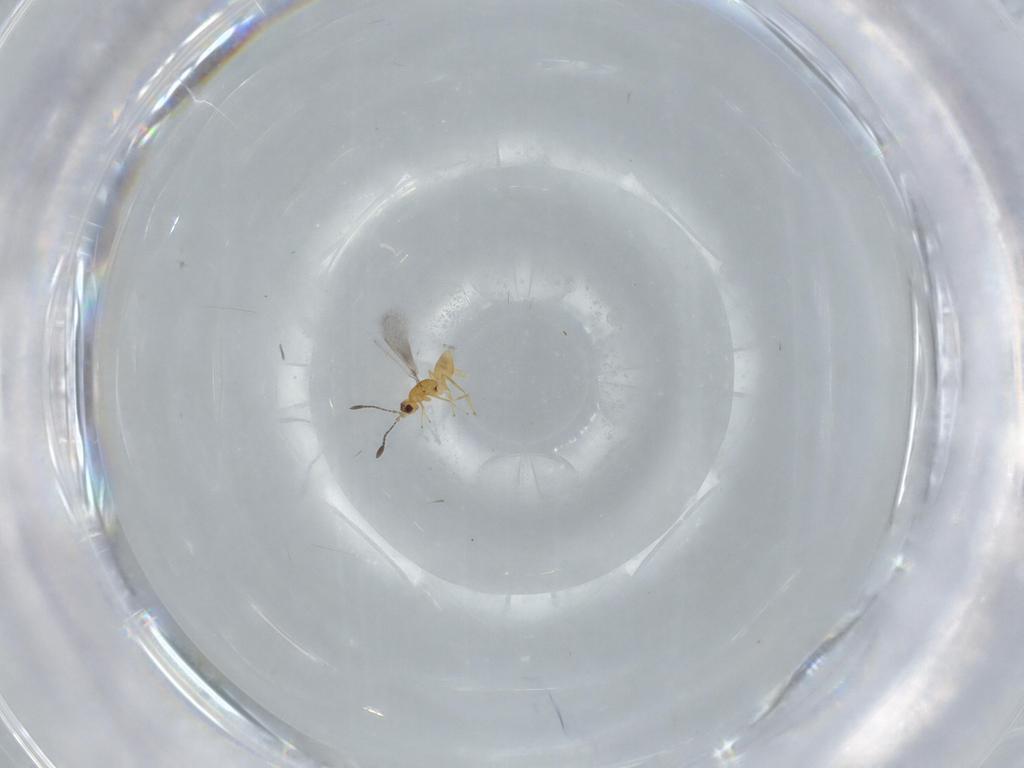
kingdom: Animalia
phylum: Arthropoda
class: Insecta
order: Hymenoptera
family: Mymaridae
